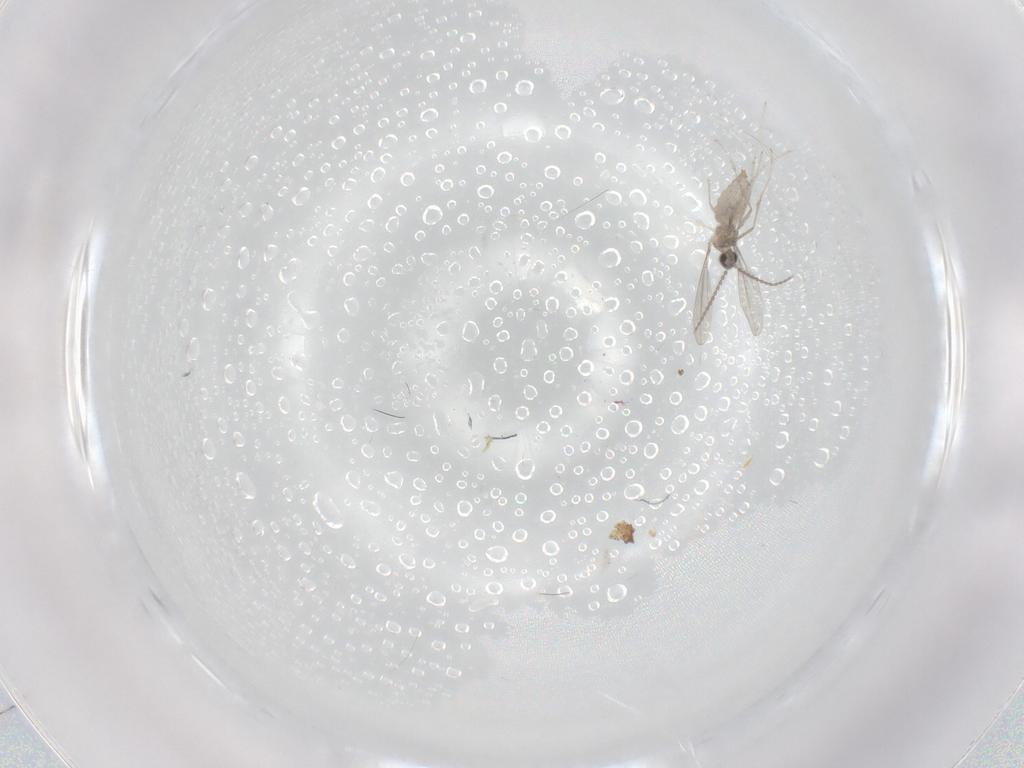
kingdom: Animalia
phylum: Arthropoda
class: Insecta
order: Diptera
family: Cecidomyiidae
